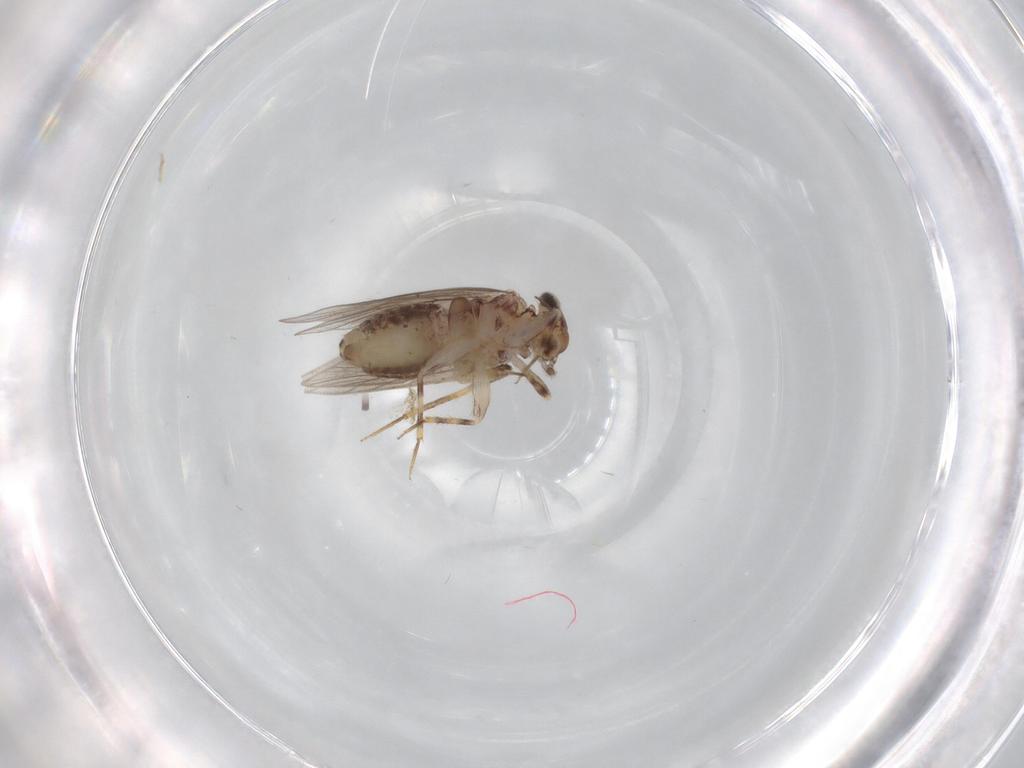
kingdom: Animalia
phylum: Arthropoda
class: Insecta
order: Psocodea
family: Lepidopsocidae
